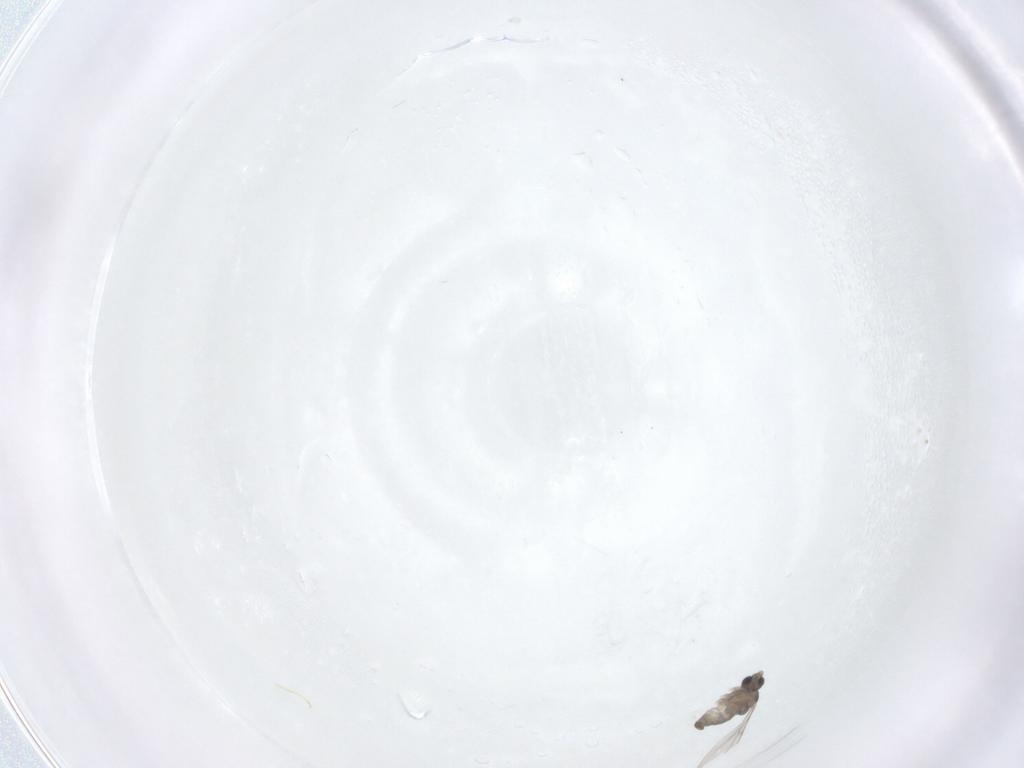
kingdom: Animalia
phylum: Arthropoda
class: Insecta
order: Diptera
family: Cecidomyiidae
